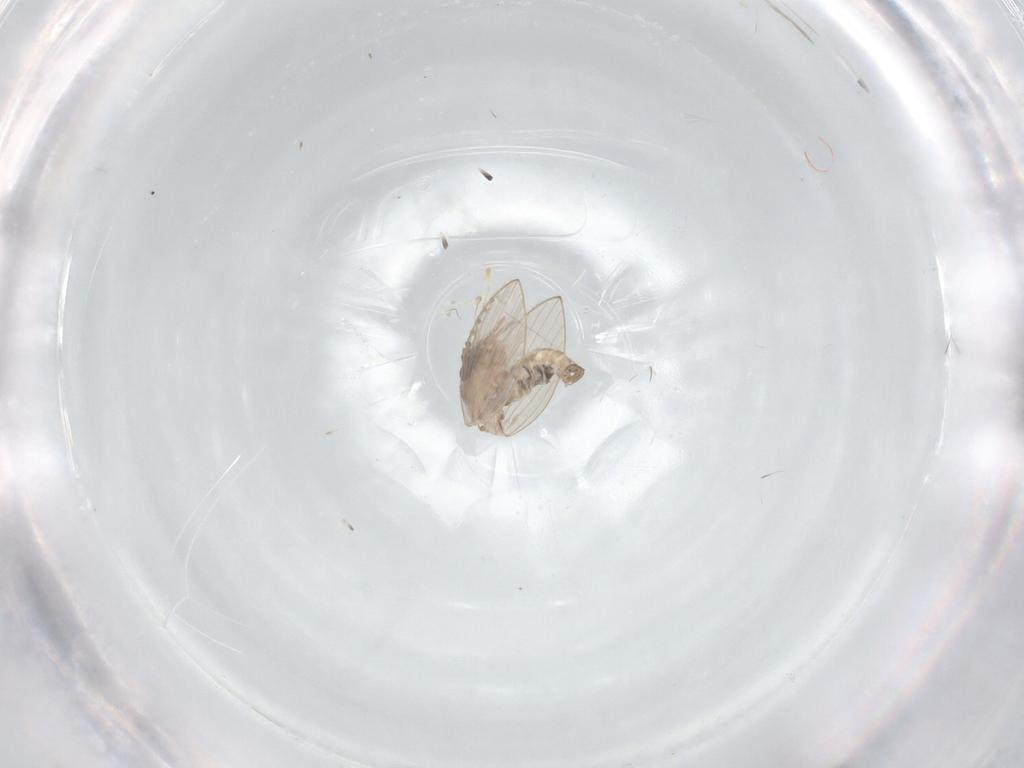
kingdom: Animalia
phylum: Arthropoda
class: Insecta
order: Diptera
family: Psychodidae
